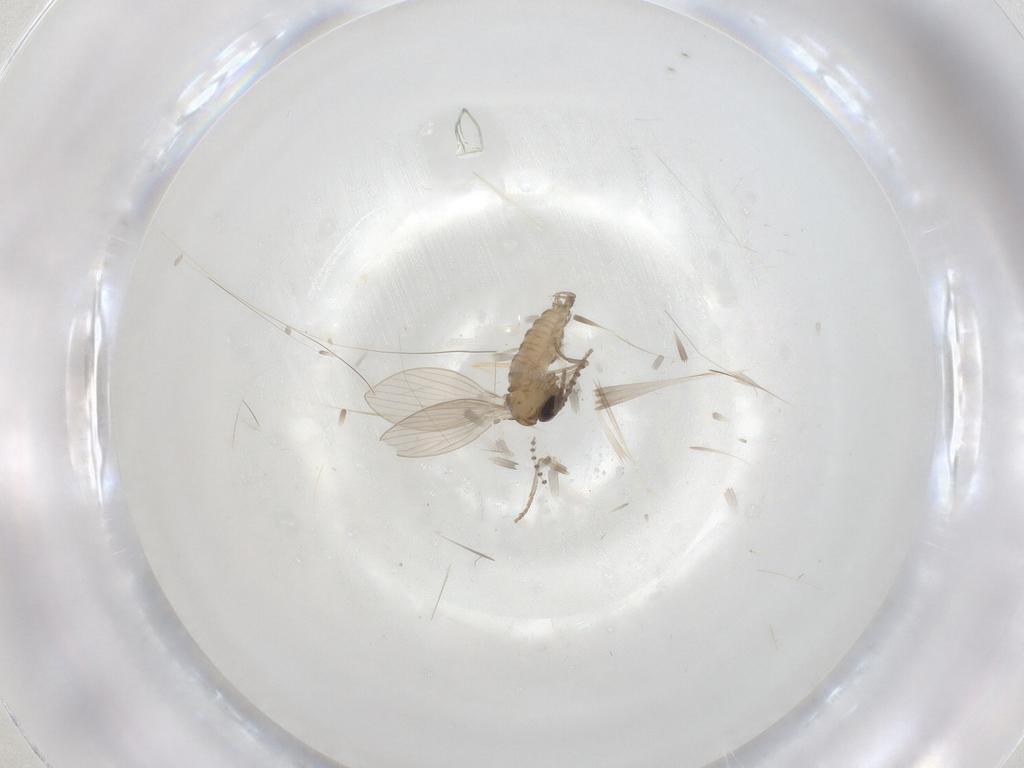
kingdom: Animalia
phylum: Arthropoda
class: Insecta
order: Diptera
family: Psychodidae
